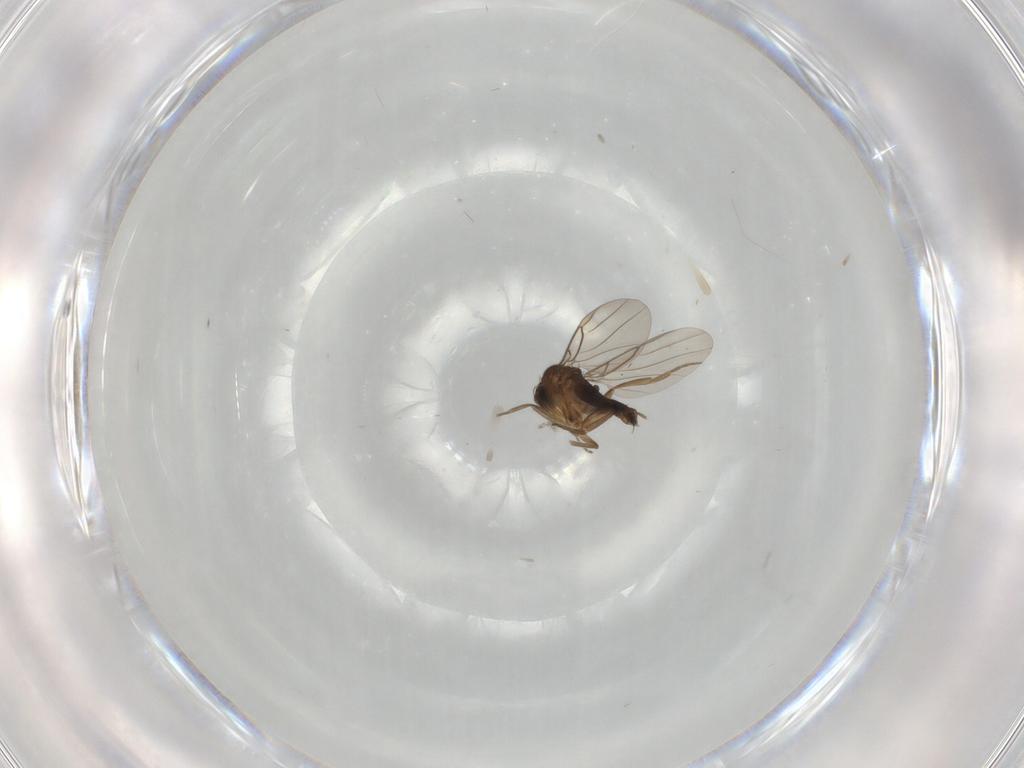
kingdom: Animalia
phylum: Arthropoda
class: Insecta
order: Diptera
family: Phoridae
